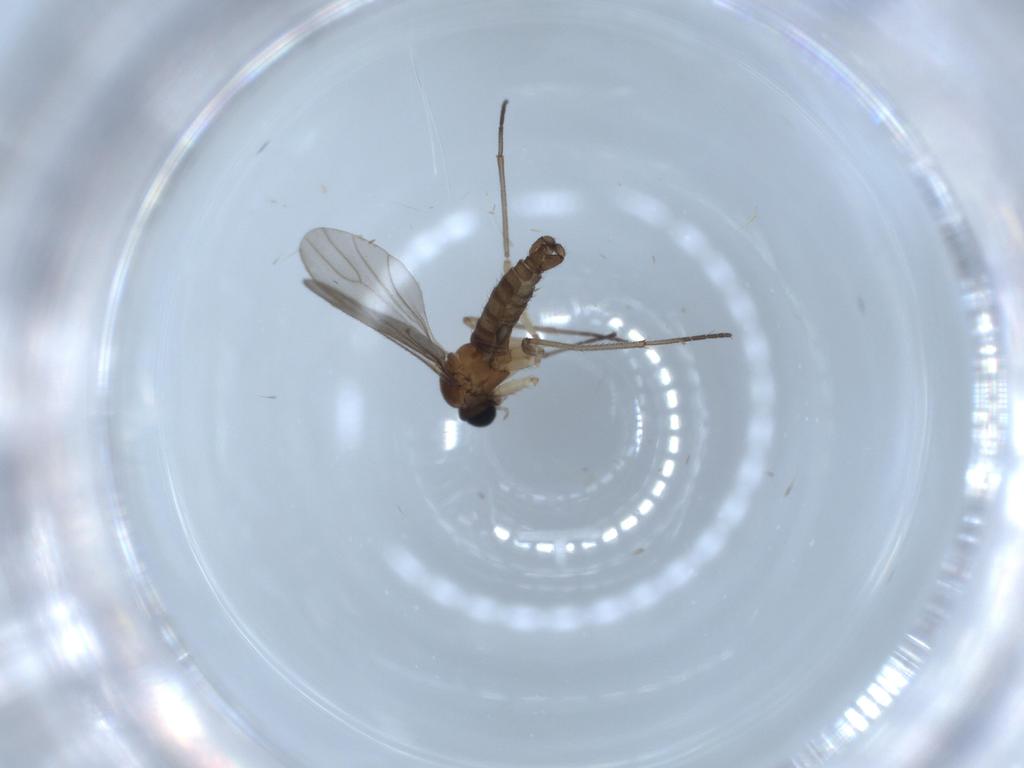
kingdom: Animalia
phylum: Arthropoda
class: Insecta
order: Diptera
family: Sciaridae
